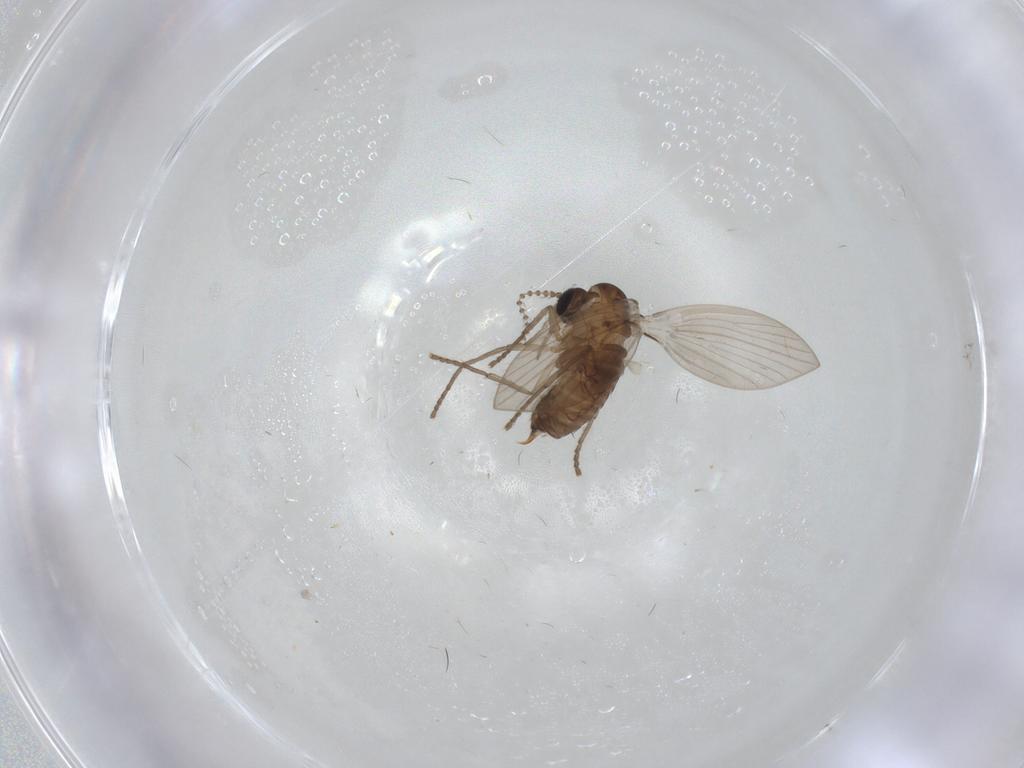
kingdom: Animalia
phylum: Arthropoda
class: Insecta
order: Diptera
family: Psychodidae
